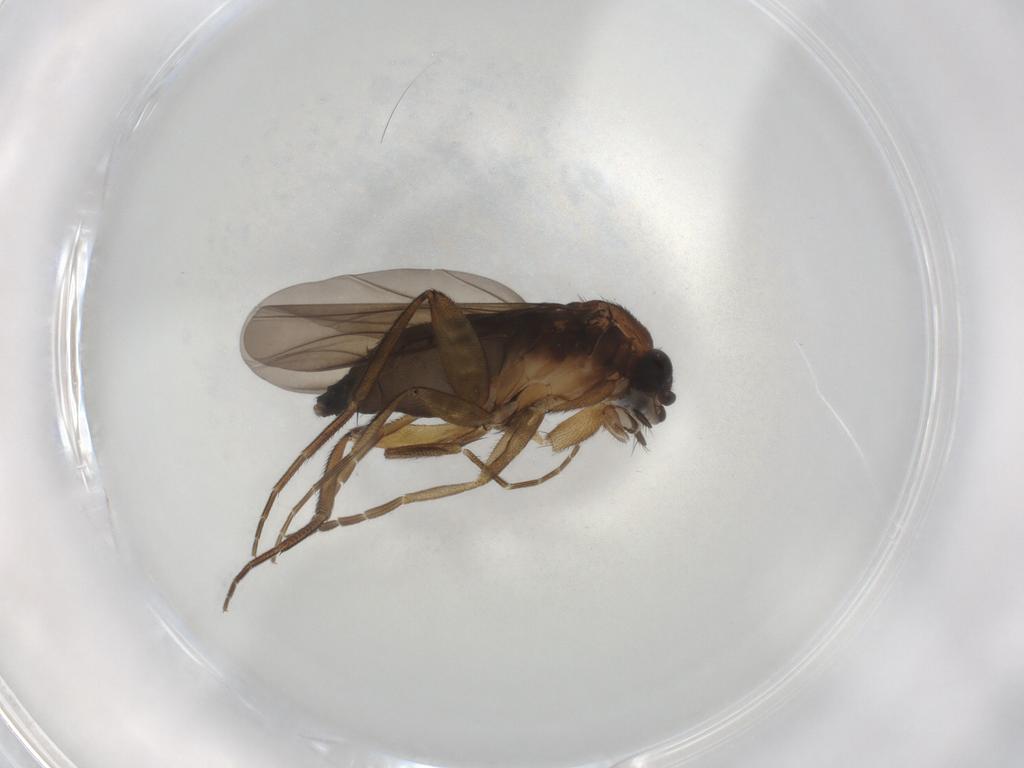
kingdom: Animalia
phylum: Arthropoda
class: Insecta
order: Diptera
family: Phoridae
